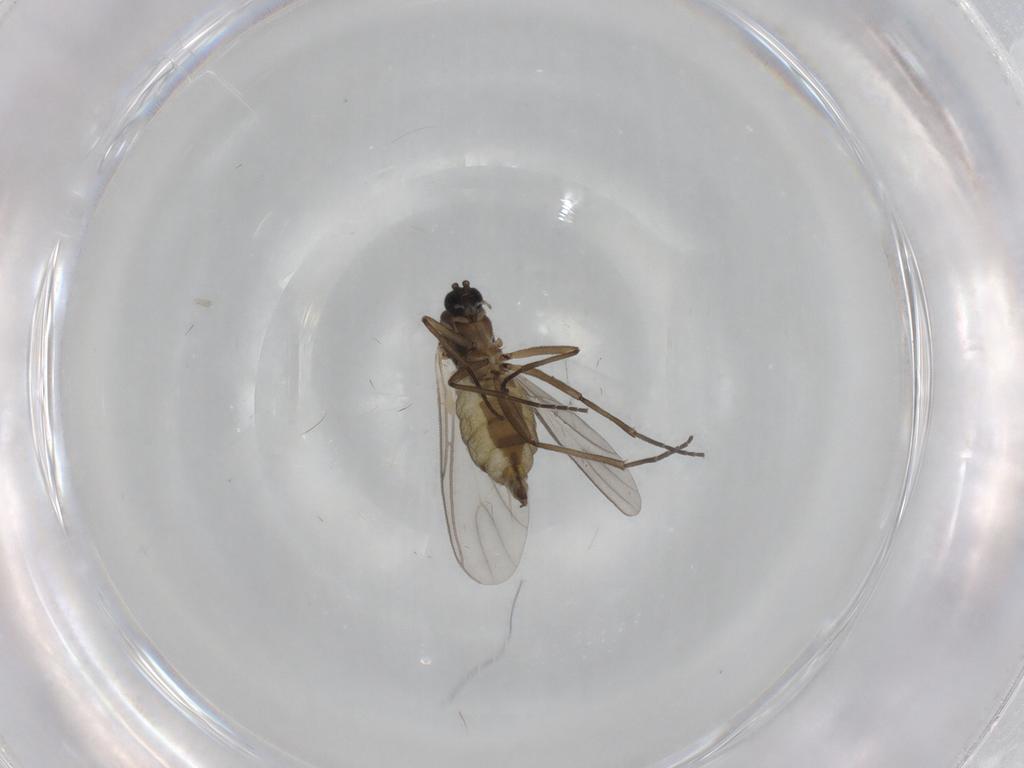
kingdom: Animalia
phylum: Arthropoda
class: Insecta
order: Diptera
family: Sciaridae
